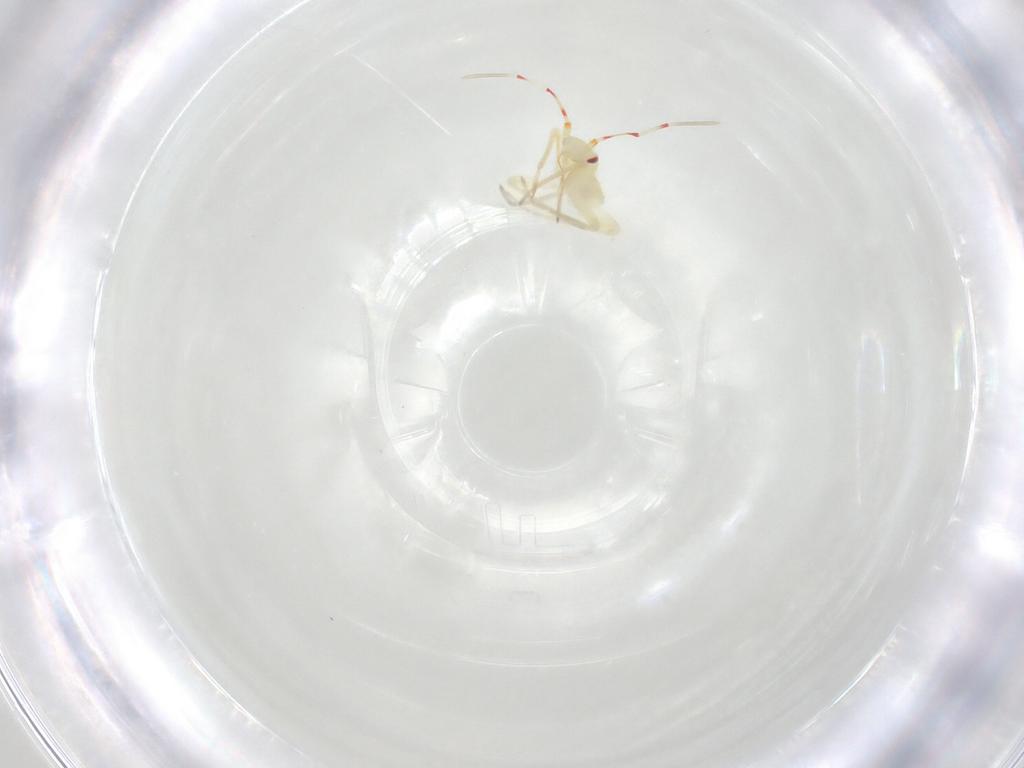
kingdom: Animalia
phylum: Arthropoda
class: Insecta
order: Hemiptera
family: Miridae
